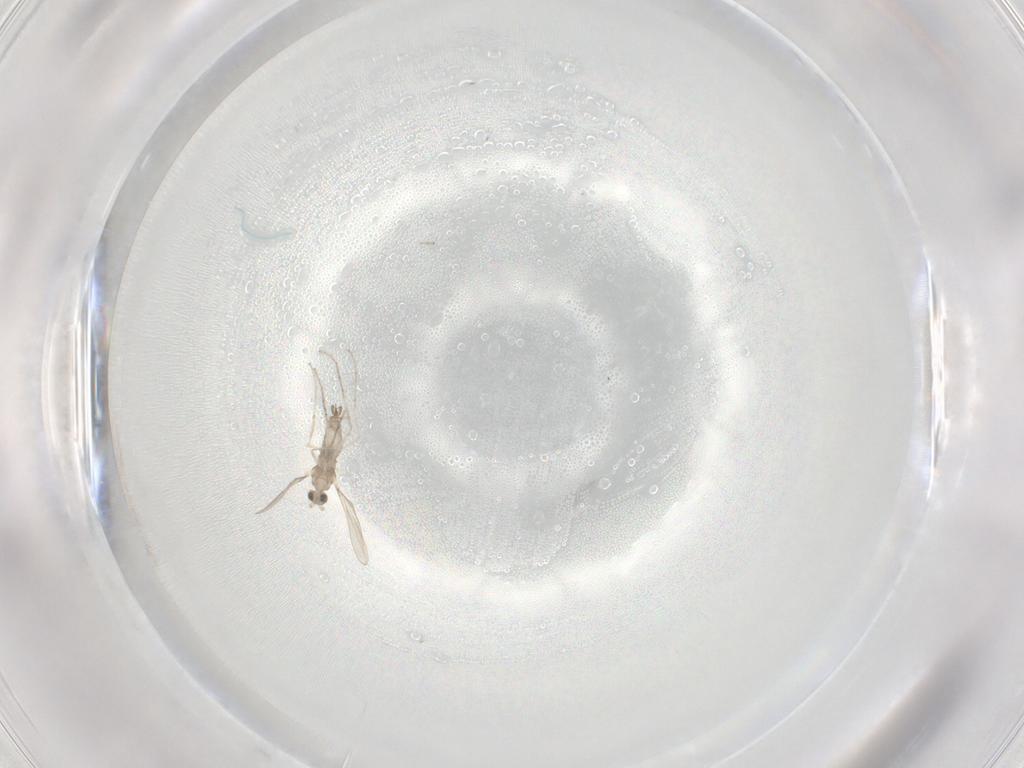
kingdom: Animalia
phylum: Arthropoda
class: Insecta
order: Diptera
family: Cecidomyiidae
